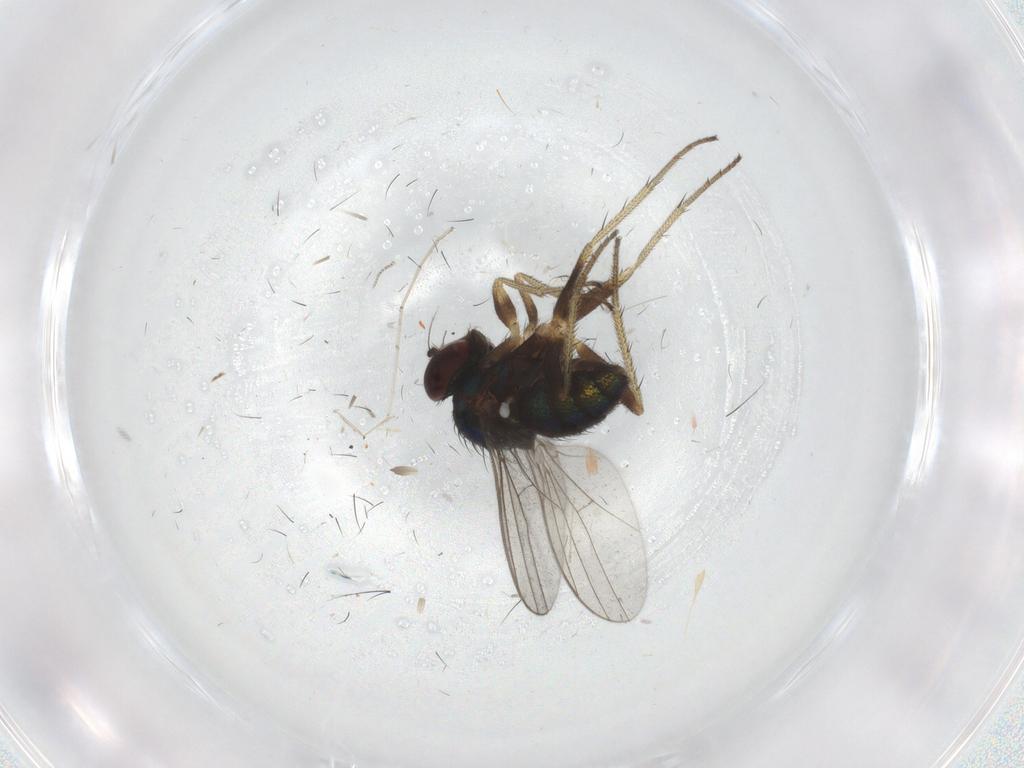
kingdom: Animalia
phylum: Arthropoda
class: Insecta
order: Diptera
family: Dolichopodidae
